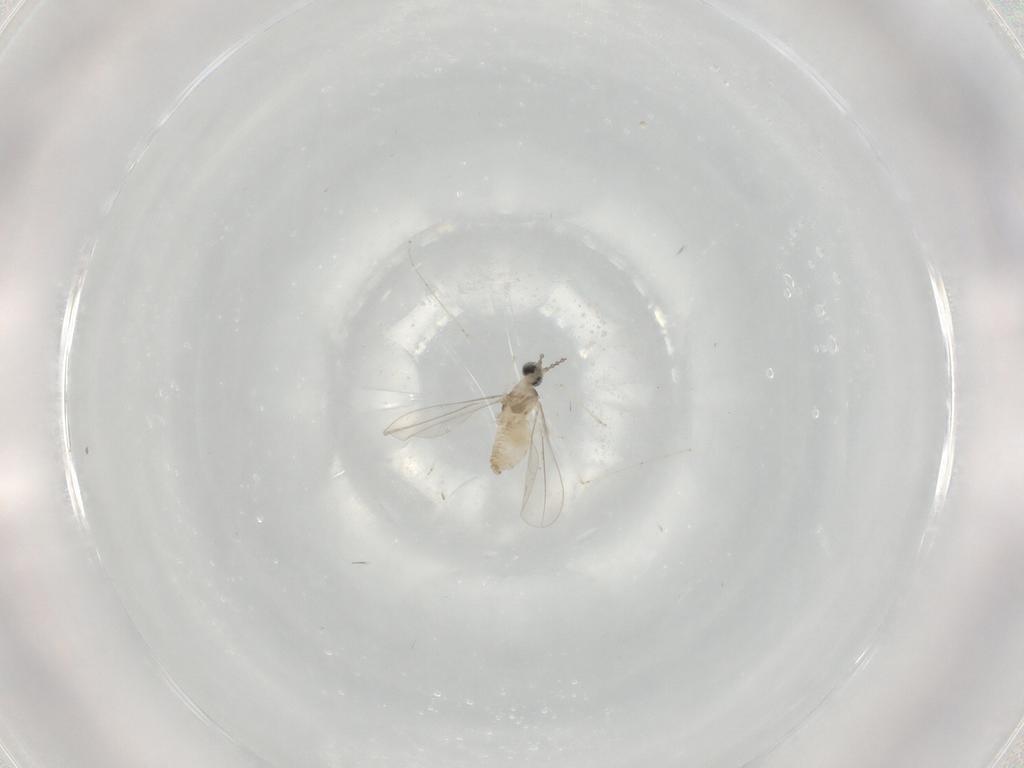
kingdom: Animalia
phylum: Arthropoda
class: Insecta
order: Diptera
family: Cecidomyiidae
